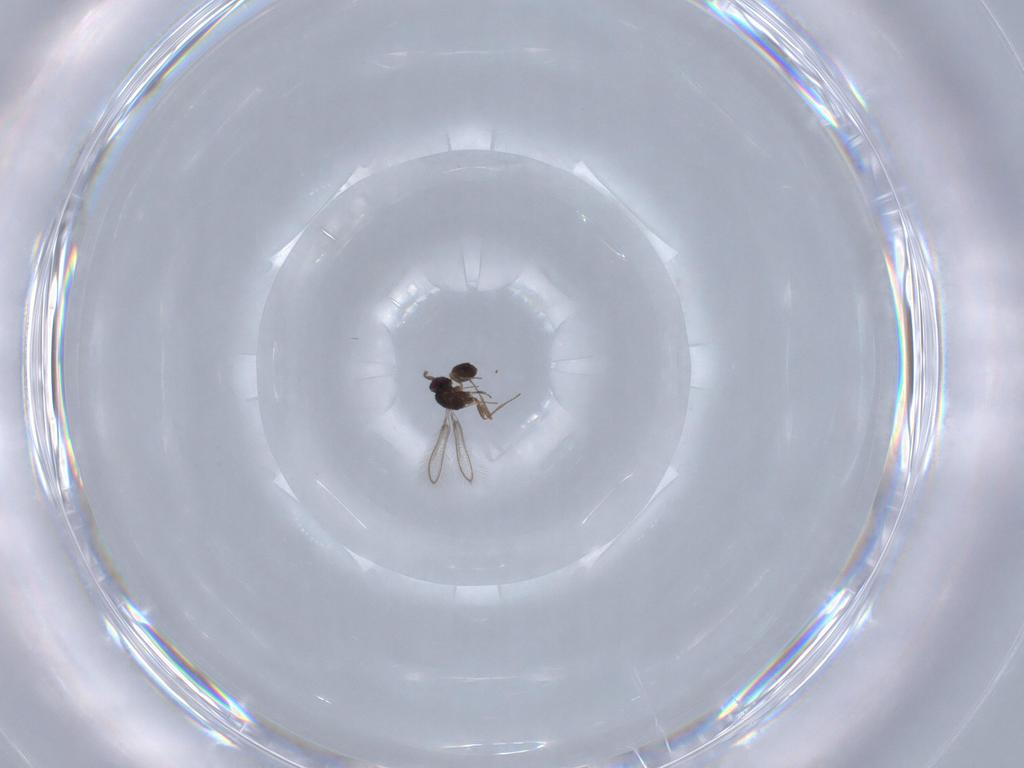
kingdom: Animalia
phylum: Arthropoda
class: Insecta
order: Hymenoptera
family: Mymaridae
